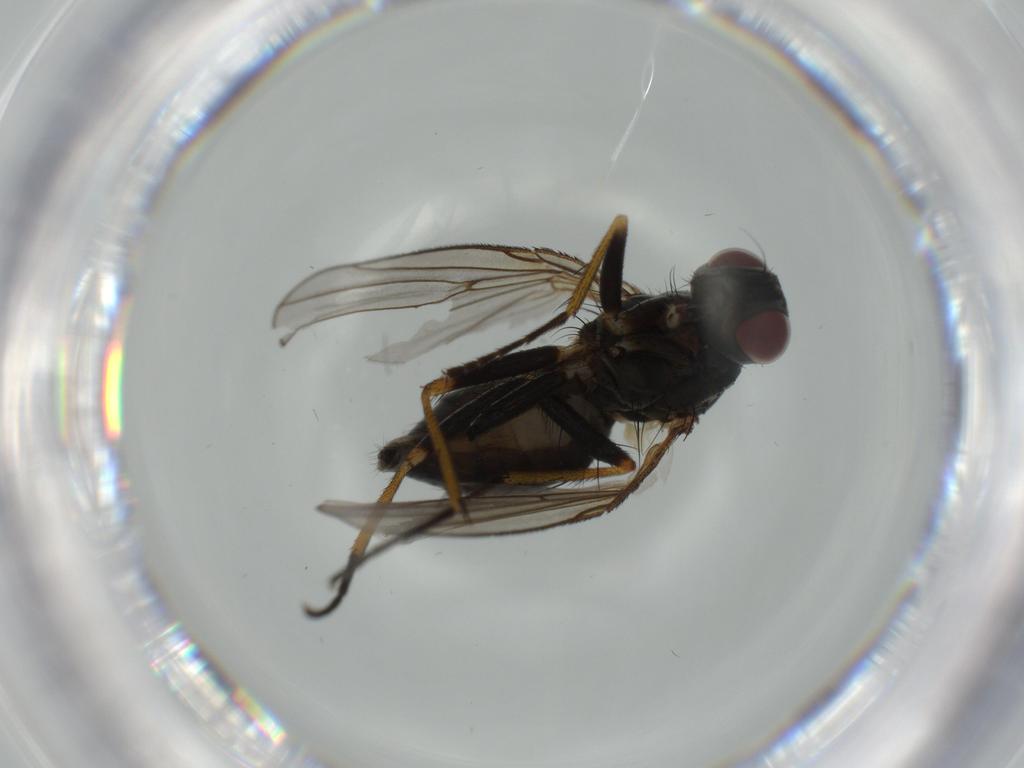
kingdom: Animalia
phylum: Arthropoda
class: Insecta
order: Diptera
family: Muscidae
